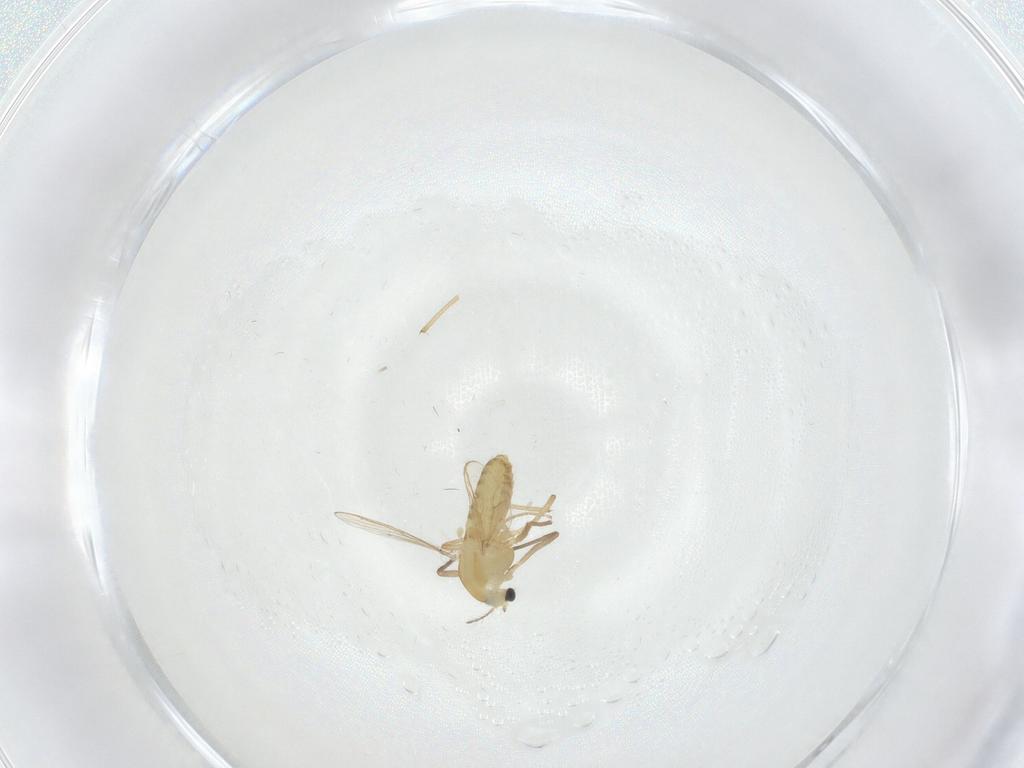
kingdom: Animalia
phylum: Arthropoda
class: Insecta
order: Diptera
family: Chironomidae
